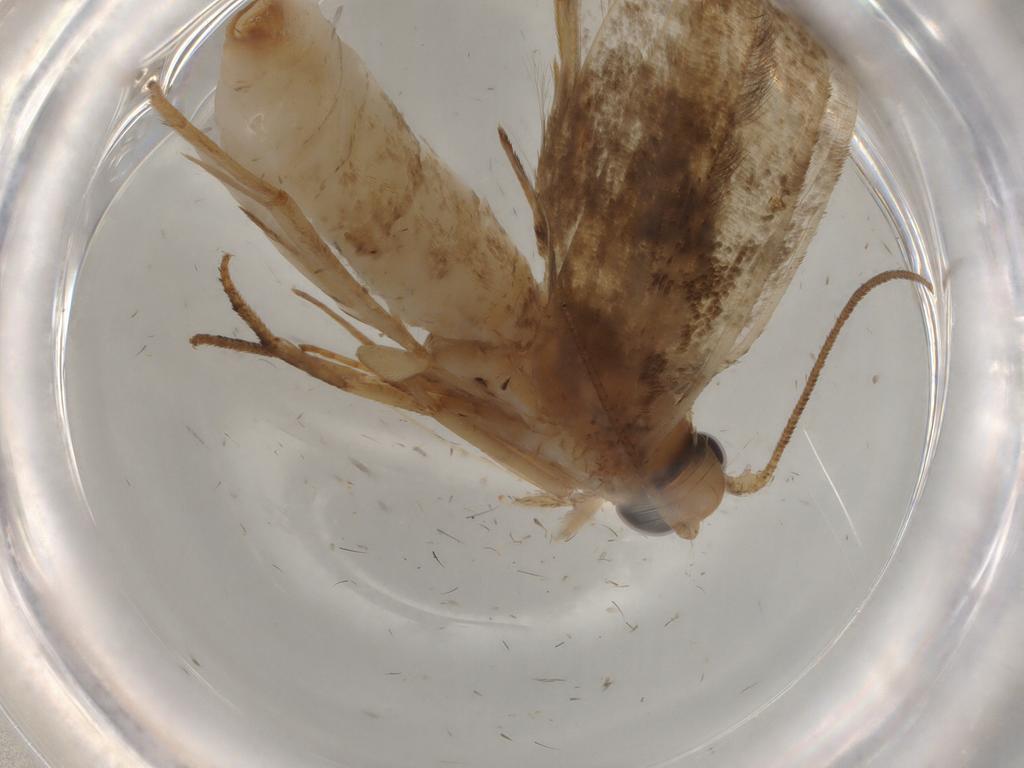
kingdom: Animalia
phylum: Arthropoda
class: Insecta
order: Lepidoptera
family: Yponomeutidae
